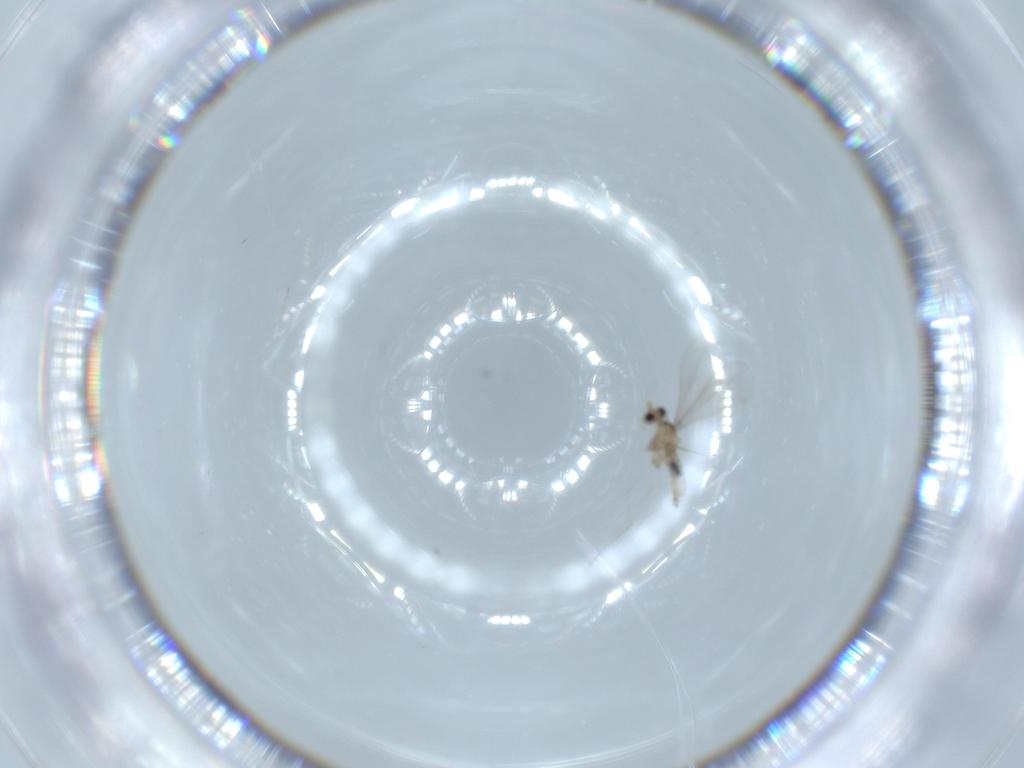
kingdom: Animalia
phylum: Arthropoda
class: Insecta
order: Diptera
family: Cecidomyiidae
